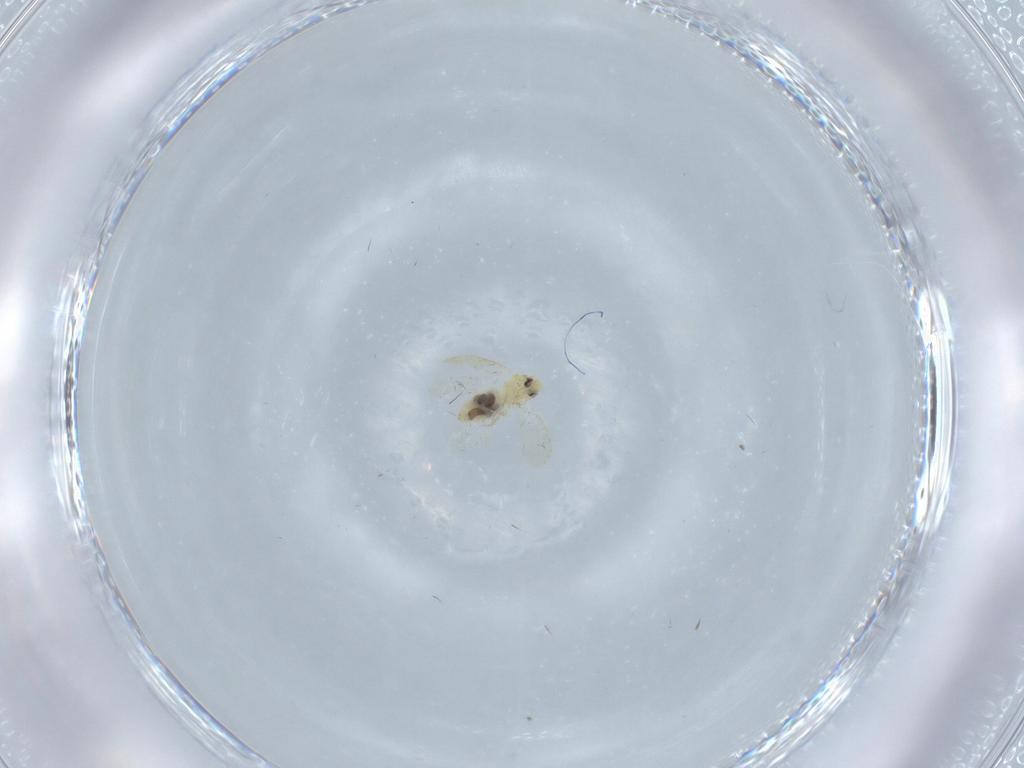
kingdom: Animalia
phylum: Arthropoda
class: Insecta
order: Hemiptera
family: Aleyrodidae
